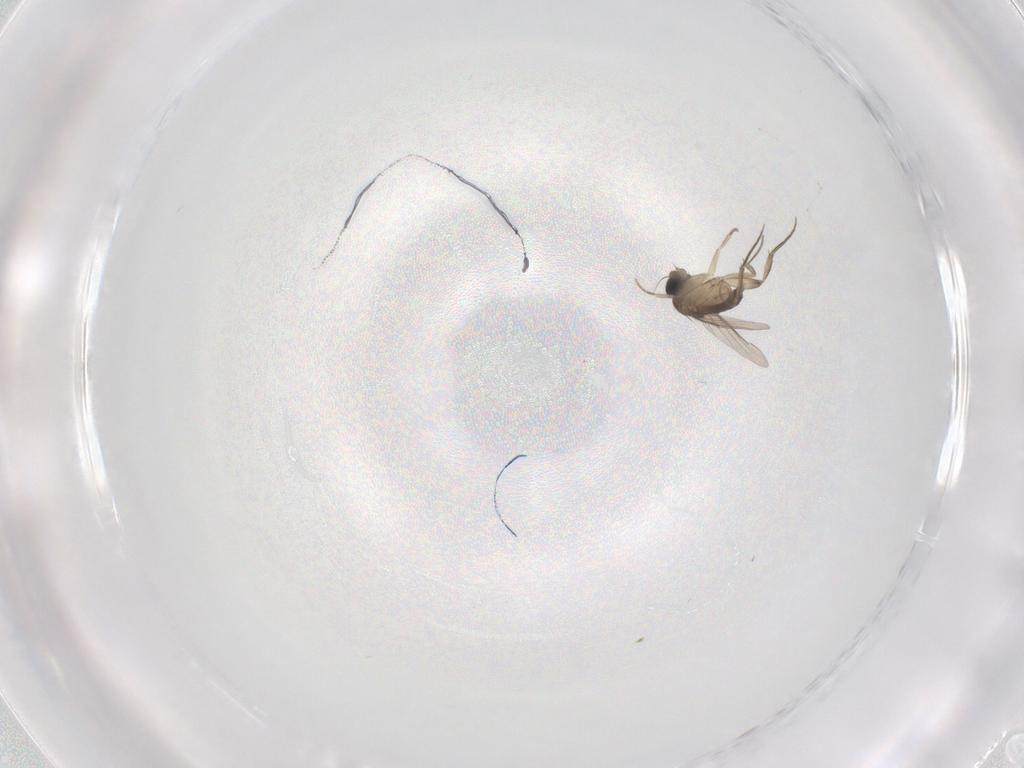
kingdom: Animalia
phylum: Arthropoda
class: Insecta
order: Diptera
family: Phoridae
